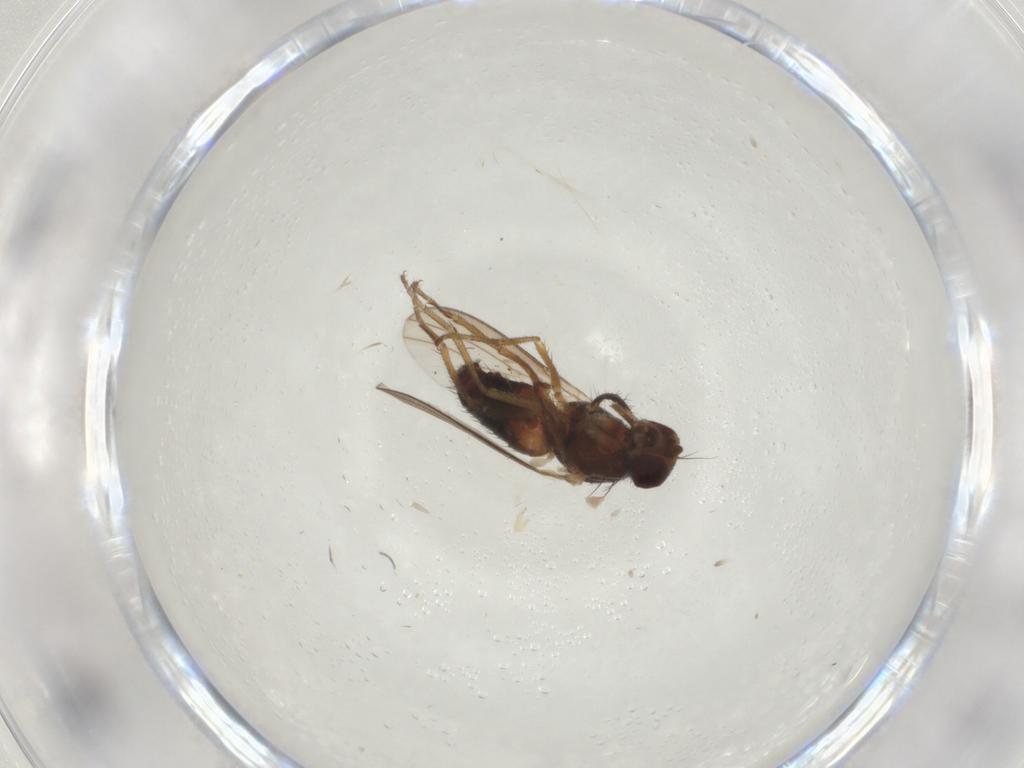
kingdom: Animalia
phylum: Arthropoda
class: Insecta
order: Diptera
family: Heleomyzidae
